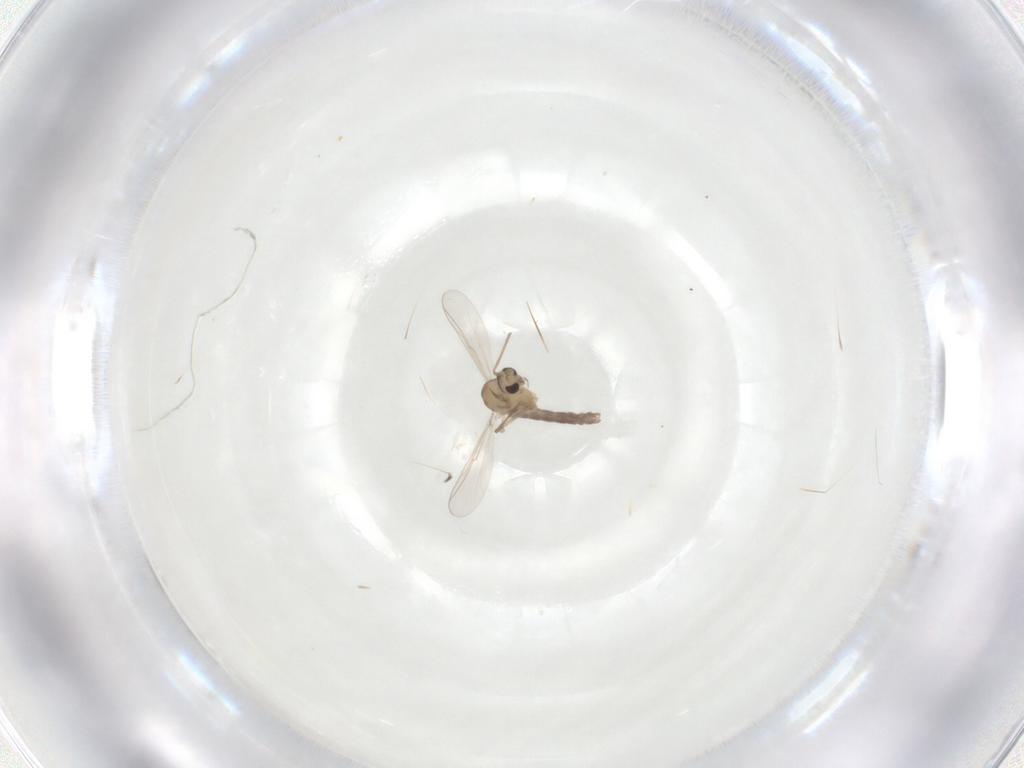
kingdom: Animalia
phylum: Arthropoda
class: Insecta
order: Diptera
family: Chironomidae
